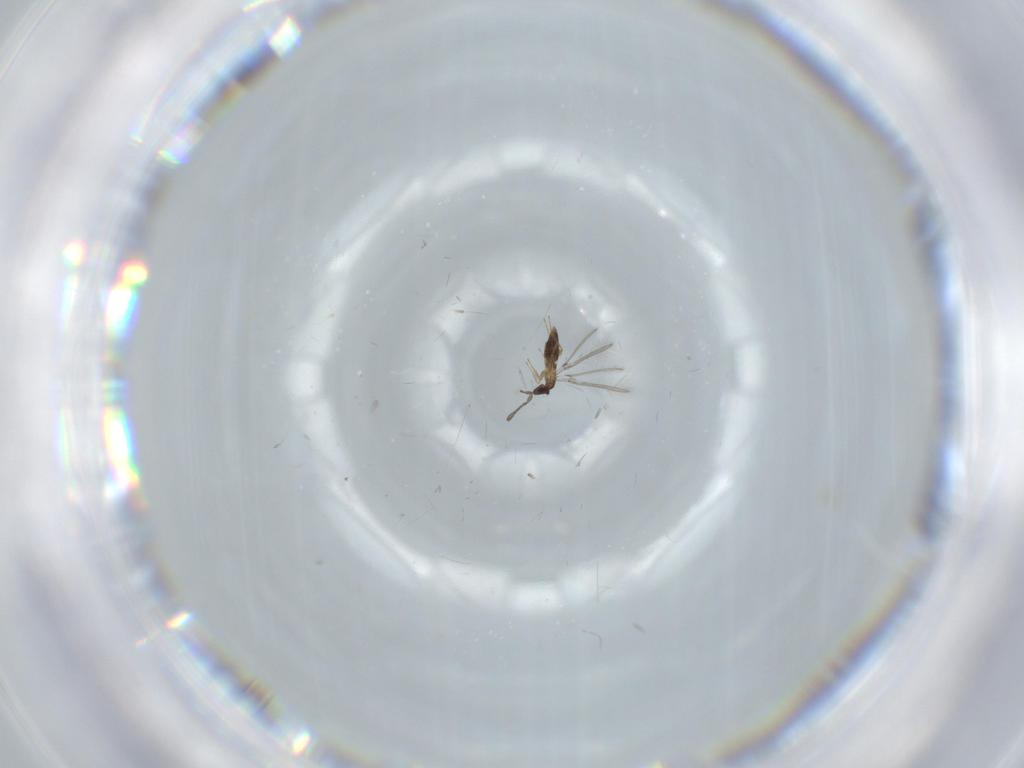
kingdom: Animalia
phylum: Arthropoda
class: Insecta
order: Hymenoptera
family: Mymaridae
